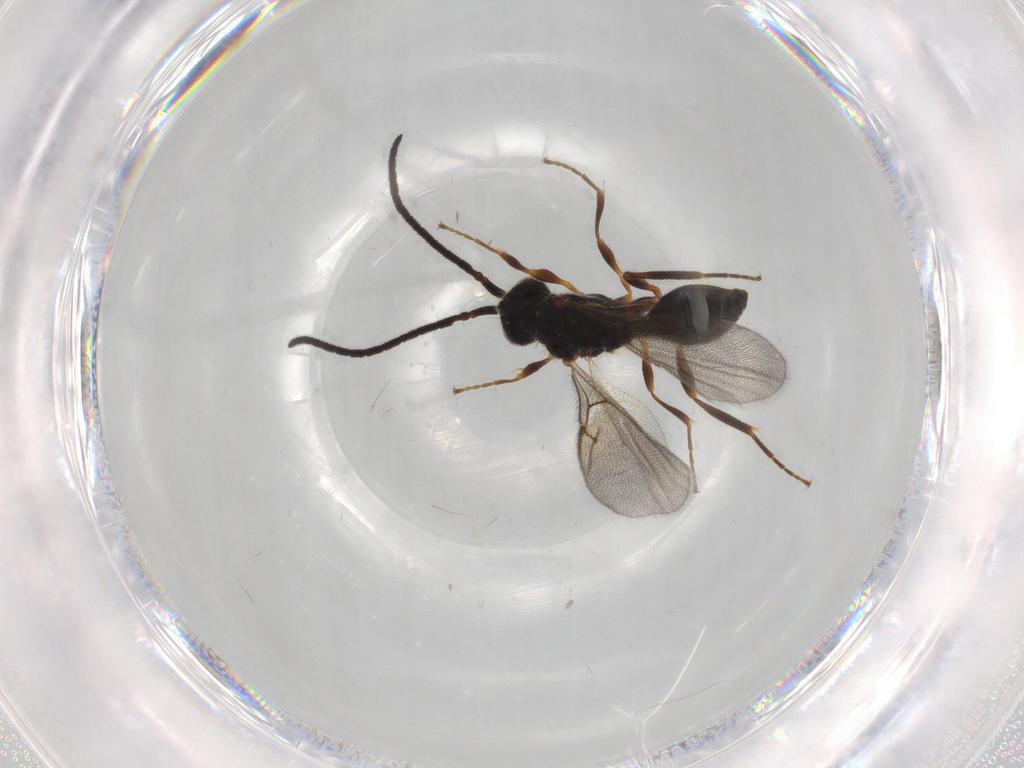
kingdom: Animalia
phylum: Arthropoda
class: Insecta
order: Hymenoptera
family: Diapriidae
